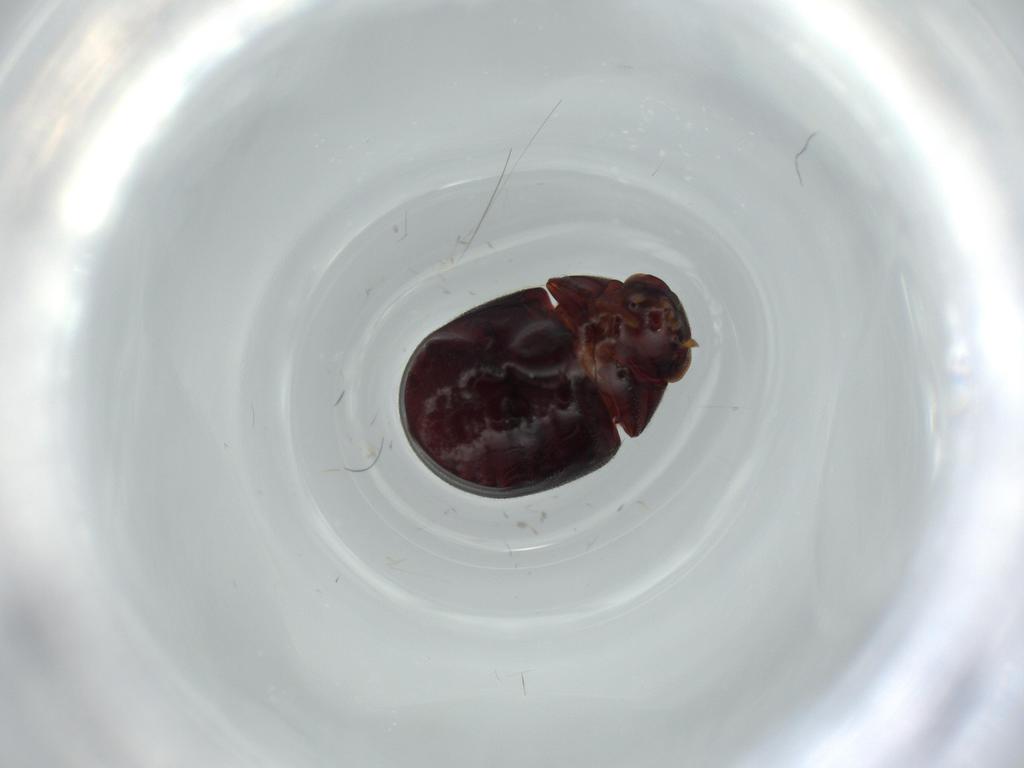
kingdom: Animalia
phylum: Arthropoda
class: Insecta
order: Coleoptera
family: Ptinidae
